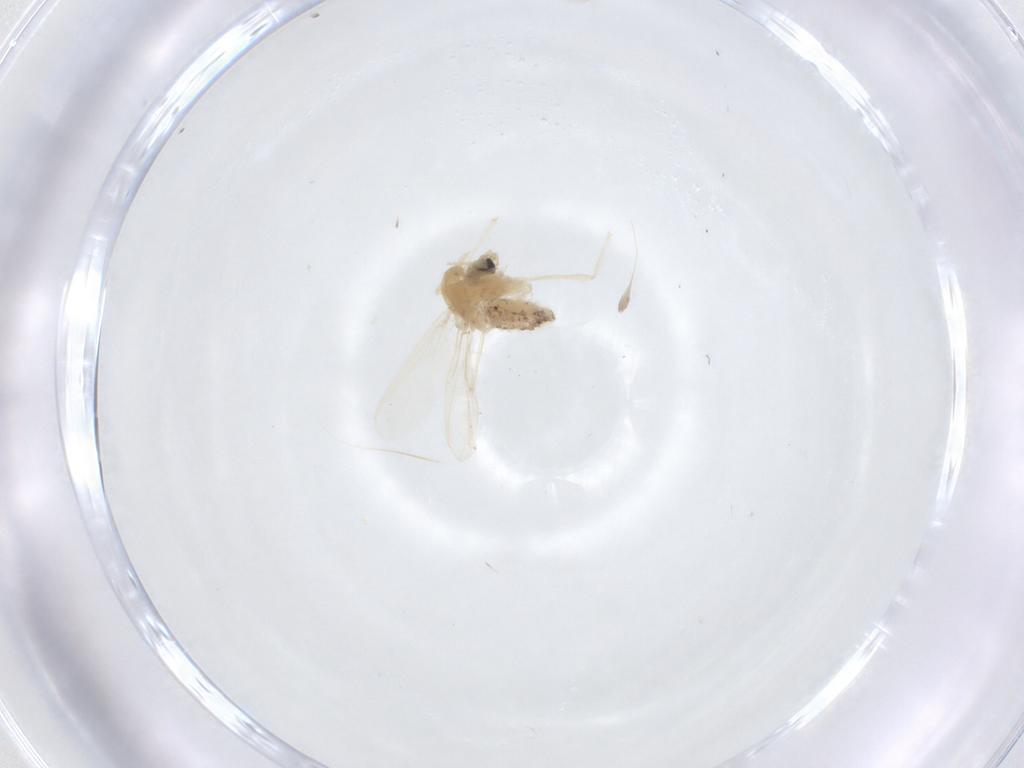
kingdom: Animalia
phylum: Arthropoda
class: Insecta
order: Diptera
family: Chironomidae
